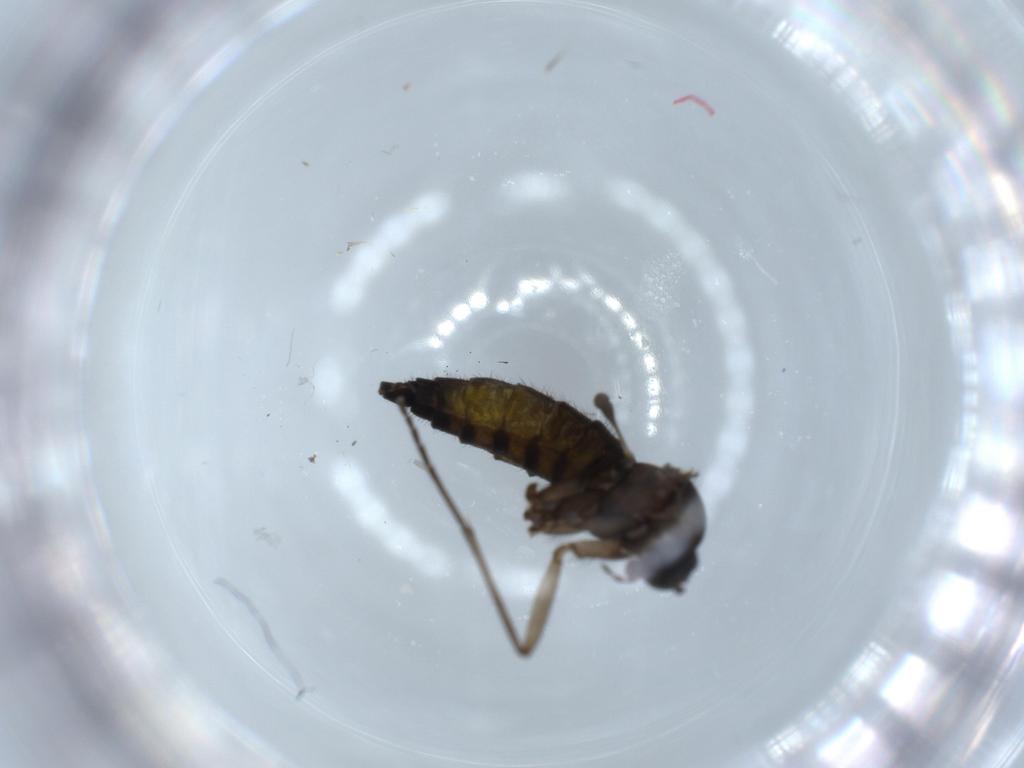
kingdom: Animalia
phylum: Arthropoda
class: Insecta
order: Diptera
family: Sciaridae
